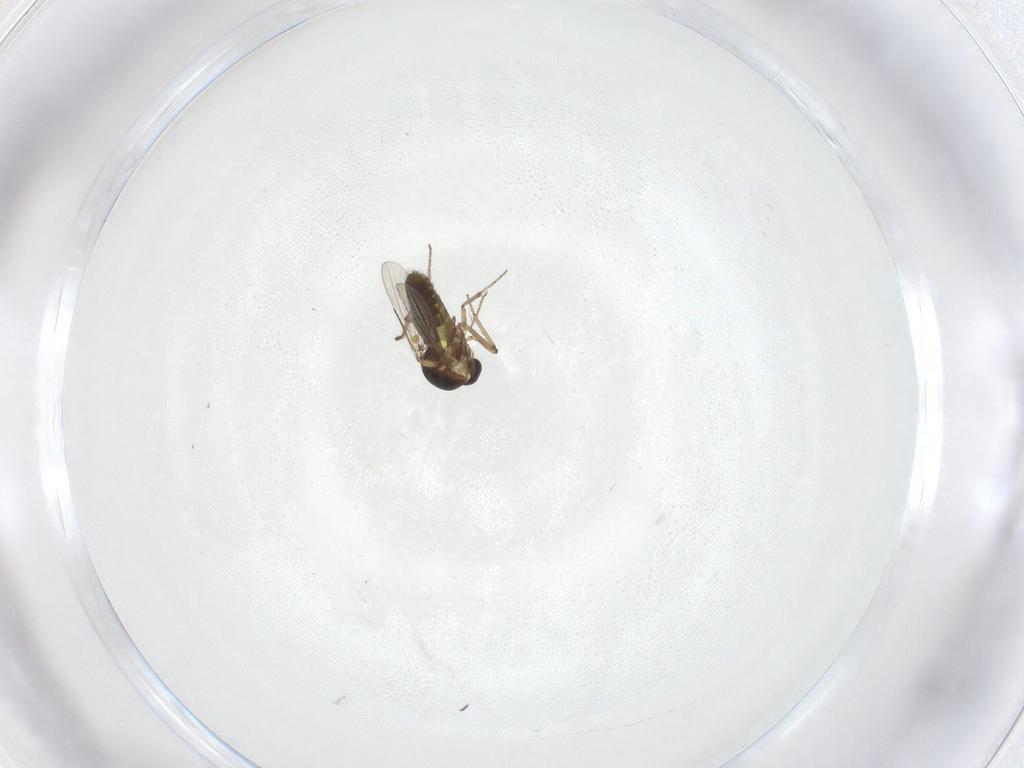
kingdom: Animalia
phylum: Arthropoda
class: Insecta
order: Diptera
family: Ceratopogonidae
